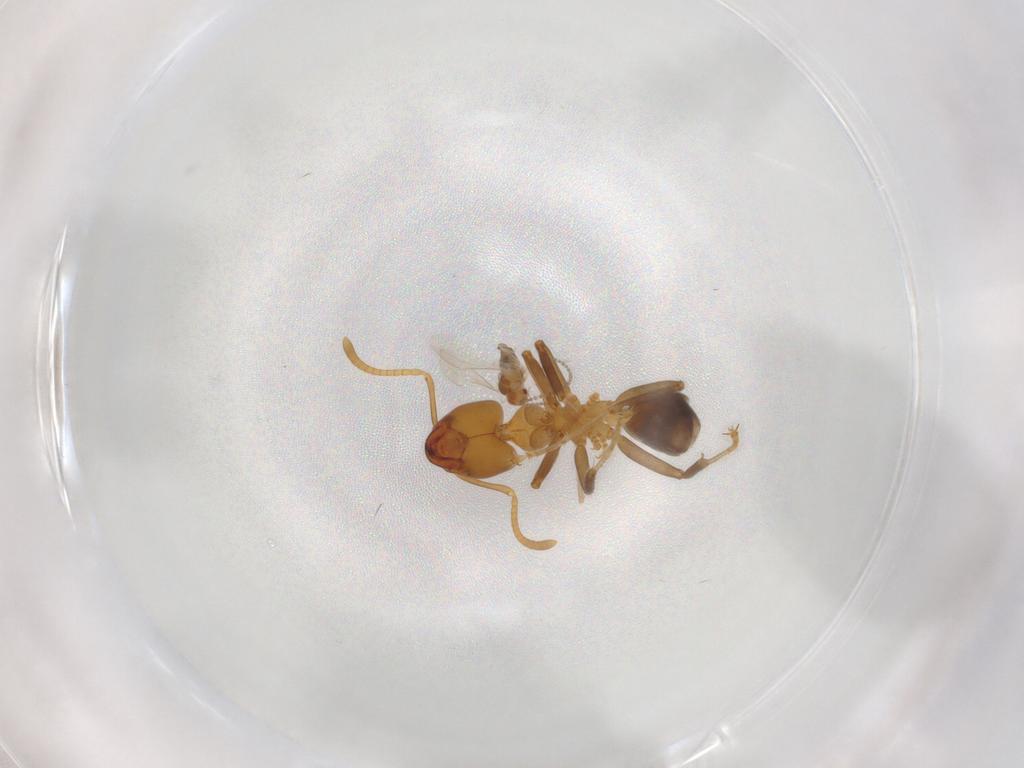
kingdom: Animalia
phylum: Arthropoda
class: Insecta
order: Hymenoptera
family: Formicidae
